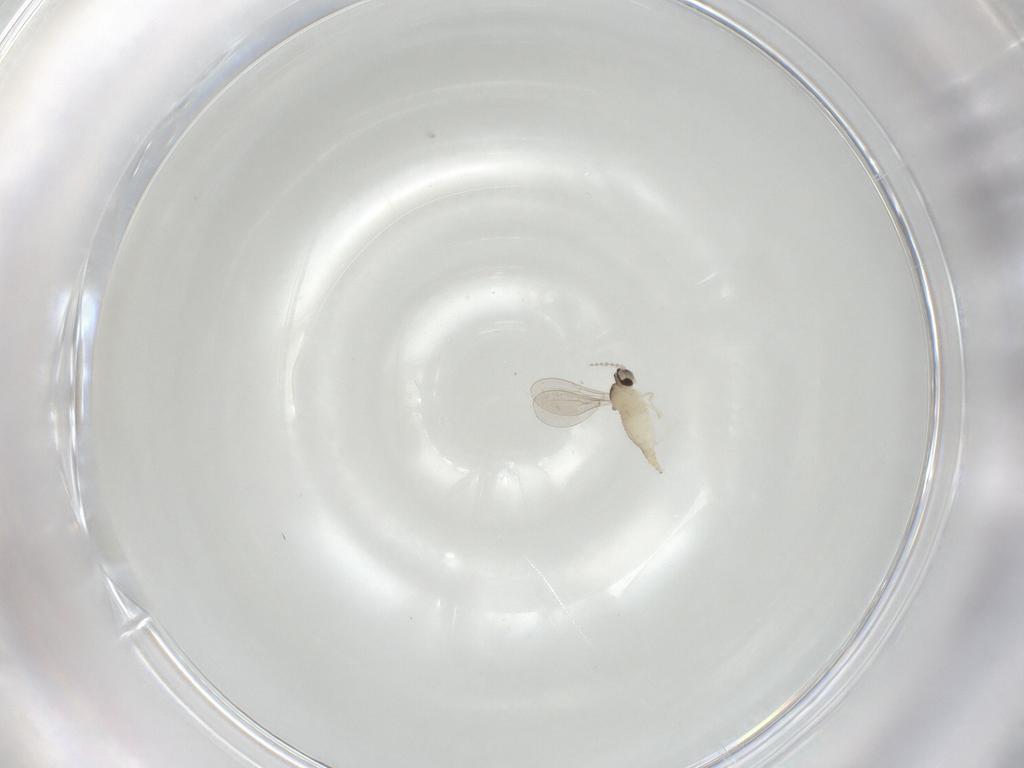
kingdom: Animalia
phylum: Arthropoda
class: Insecta
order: Diptera
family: Cecidomyiidae
